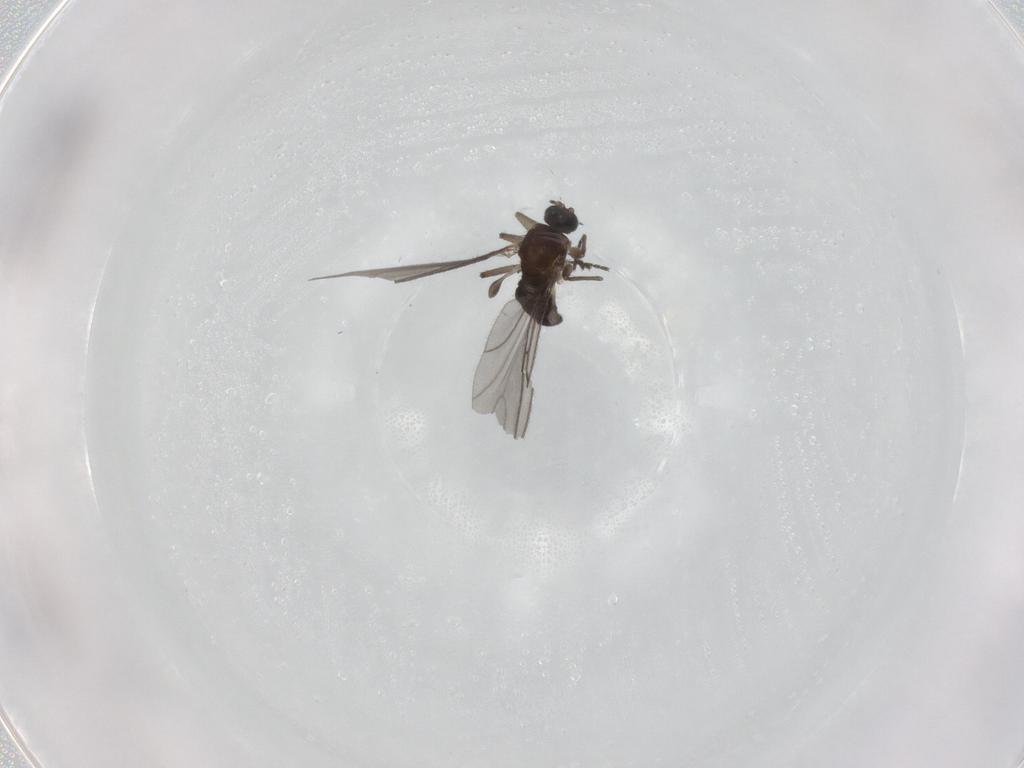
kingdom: Animalia
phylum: Arthropoda
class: Insecta
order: Diptera
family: Sciaridae
